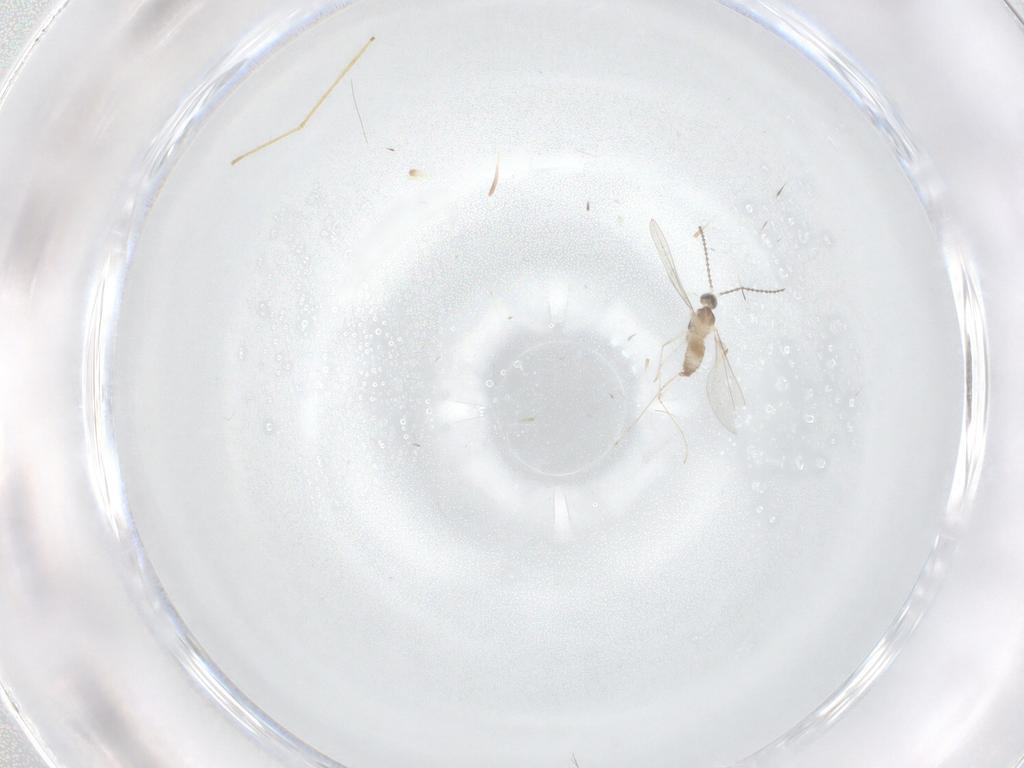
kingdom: Animalia
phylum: Arthropoda
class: Insecta
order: Diptera
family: Cecidomyiidae
